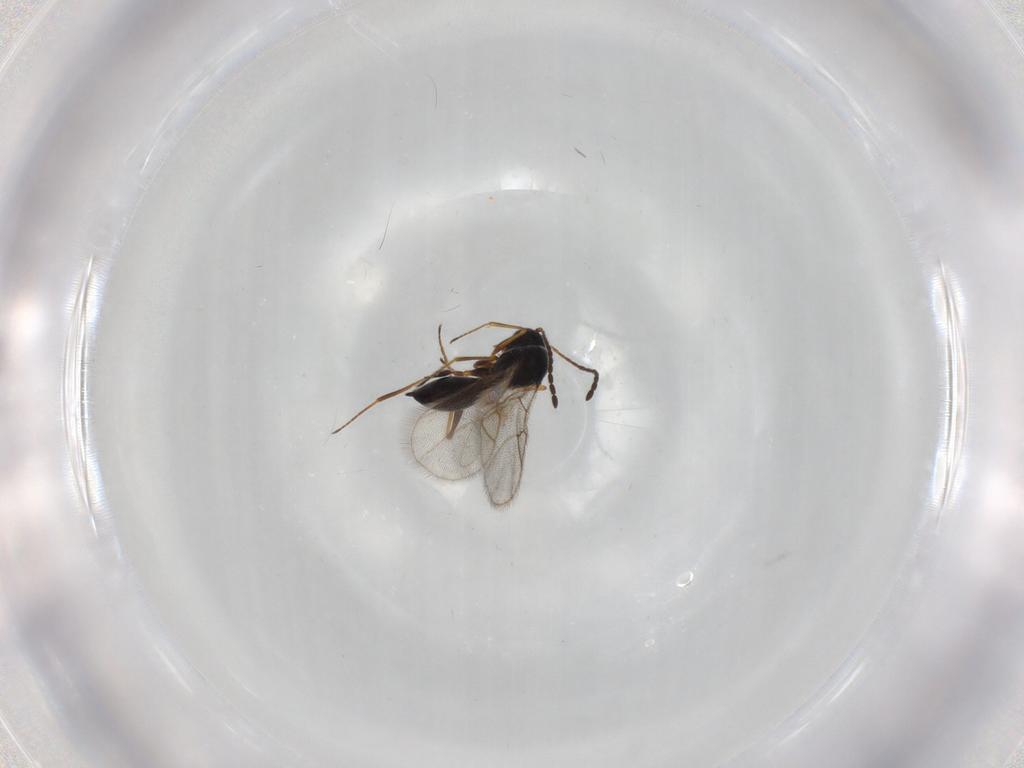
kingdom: Animalia
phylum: Arthropoda
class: Insecta
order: Hymenoptera
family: Figitidae
